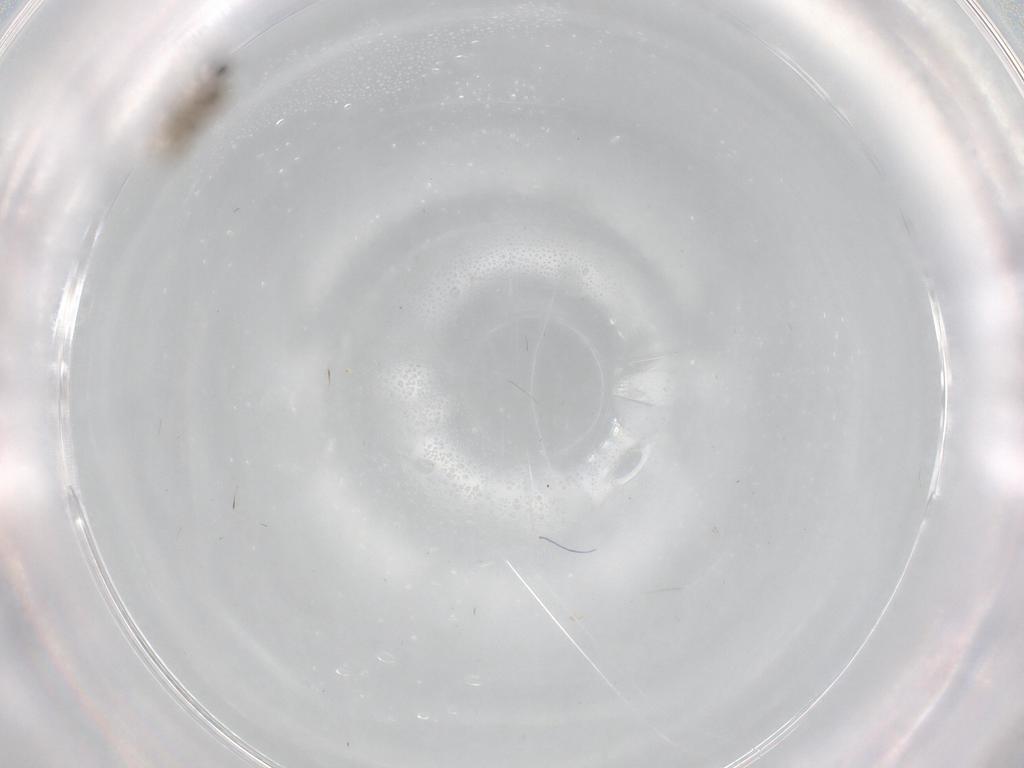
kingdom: Animalia
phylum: Arthropoda
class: Insecta
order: Diptera
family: Cecidomyiidae
